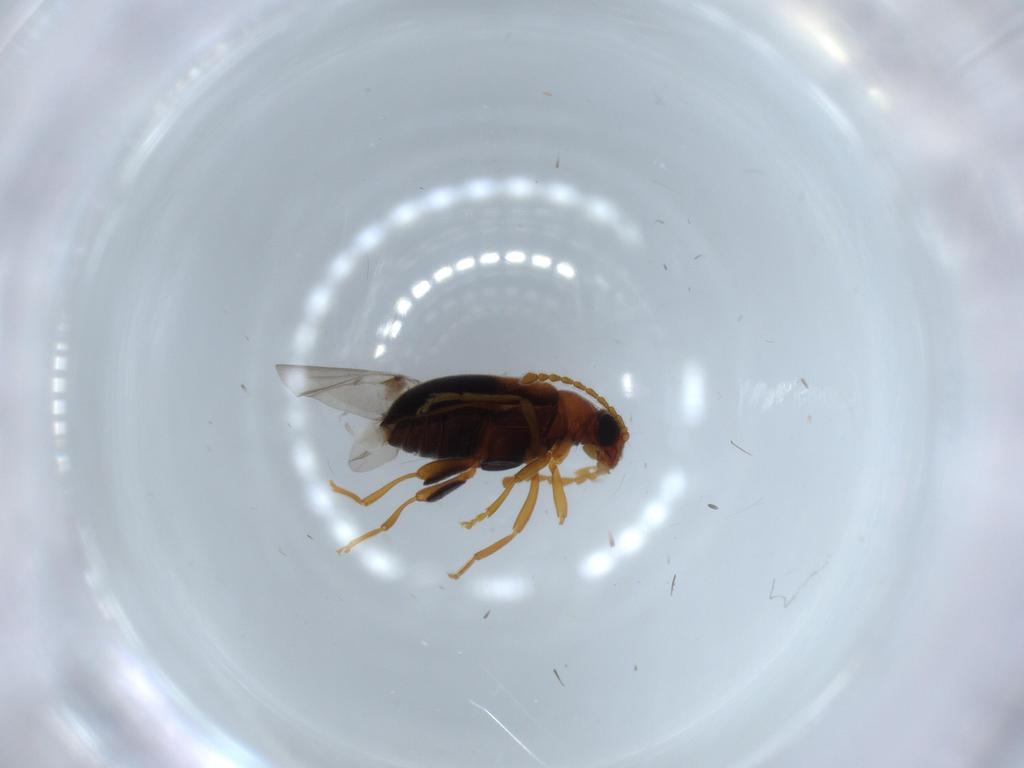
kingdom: Animalia
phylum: Arthropoda
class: Insecta
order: Coleoptera
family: Aderidae
